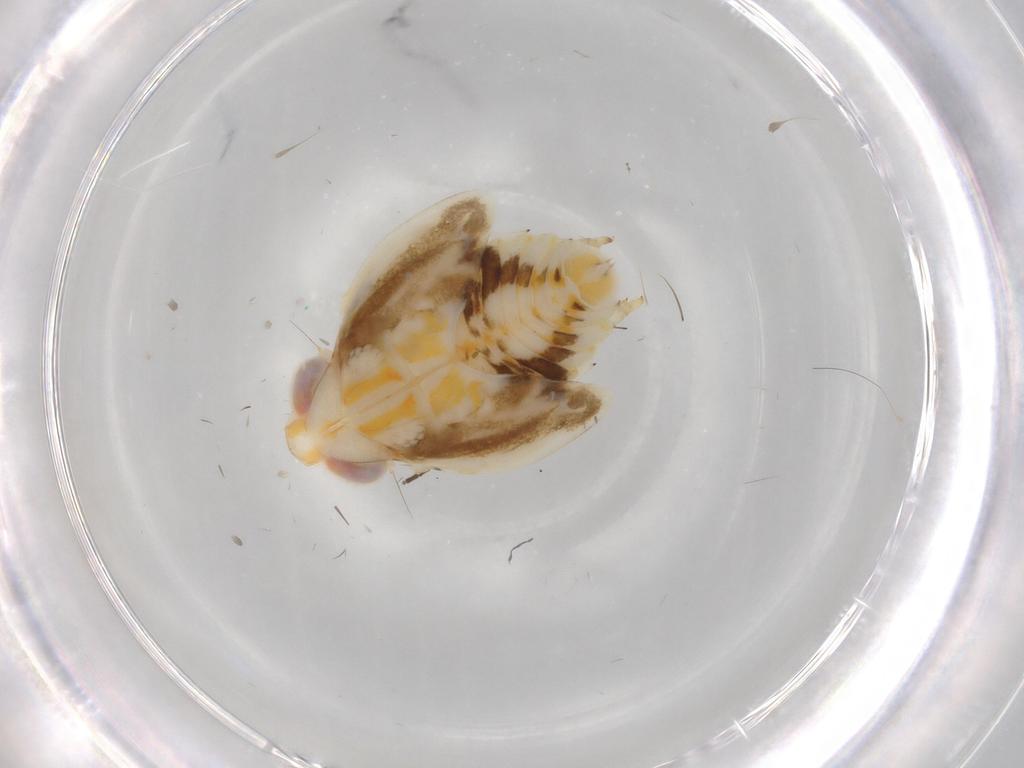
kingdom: Animalia
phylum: Arthropoda
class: Insecta
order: Hemiptera
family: Nogodinidae
